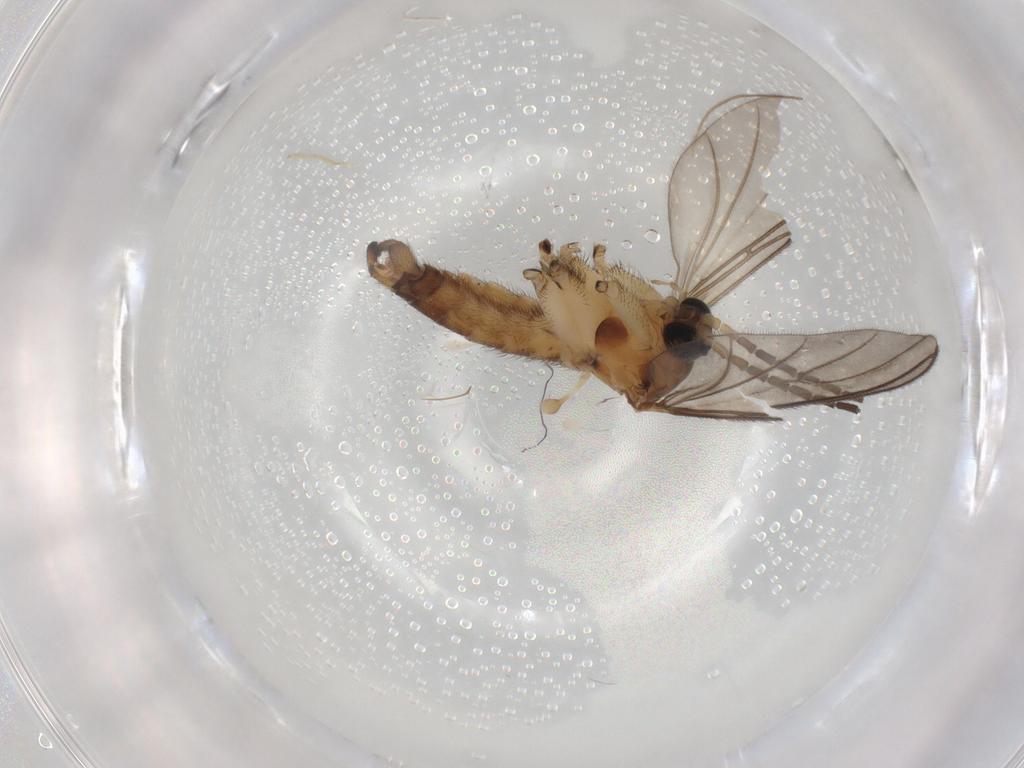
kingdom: Animalia
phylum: Arthropoda
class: Insecta
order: Diptera
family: Sciaridae
